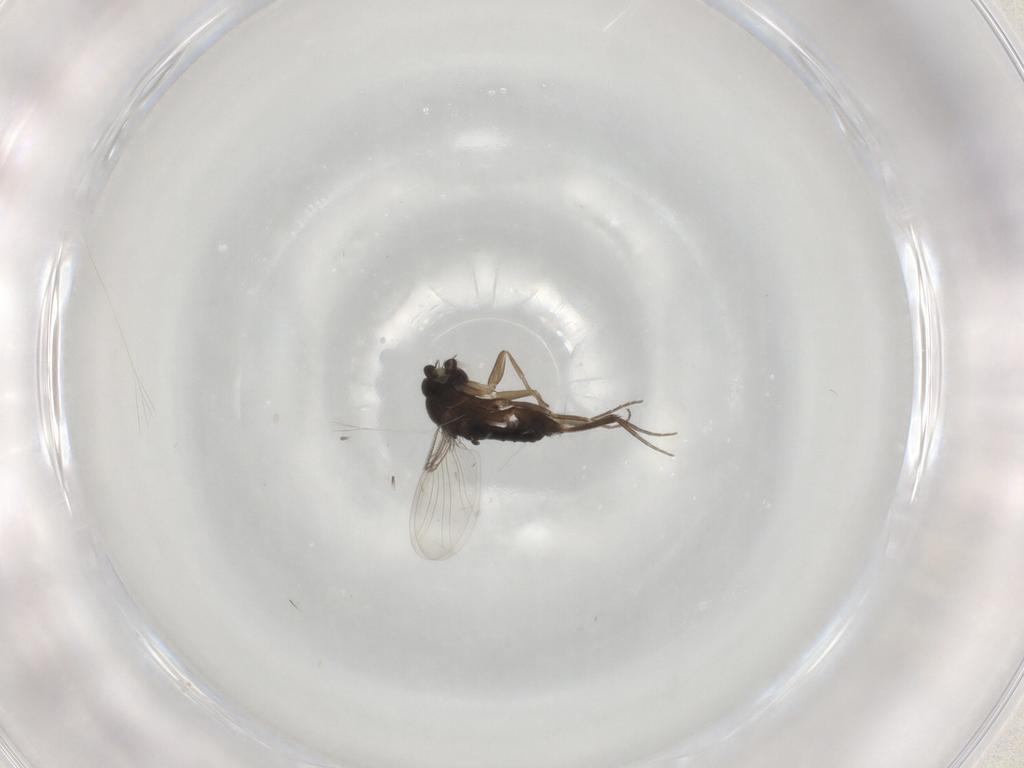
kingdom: Animalia
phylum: Arthropoda
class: Insecta
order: Diptera
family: Phoridae
